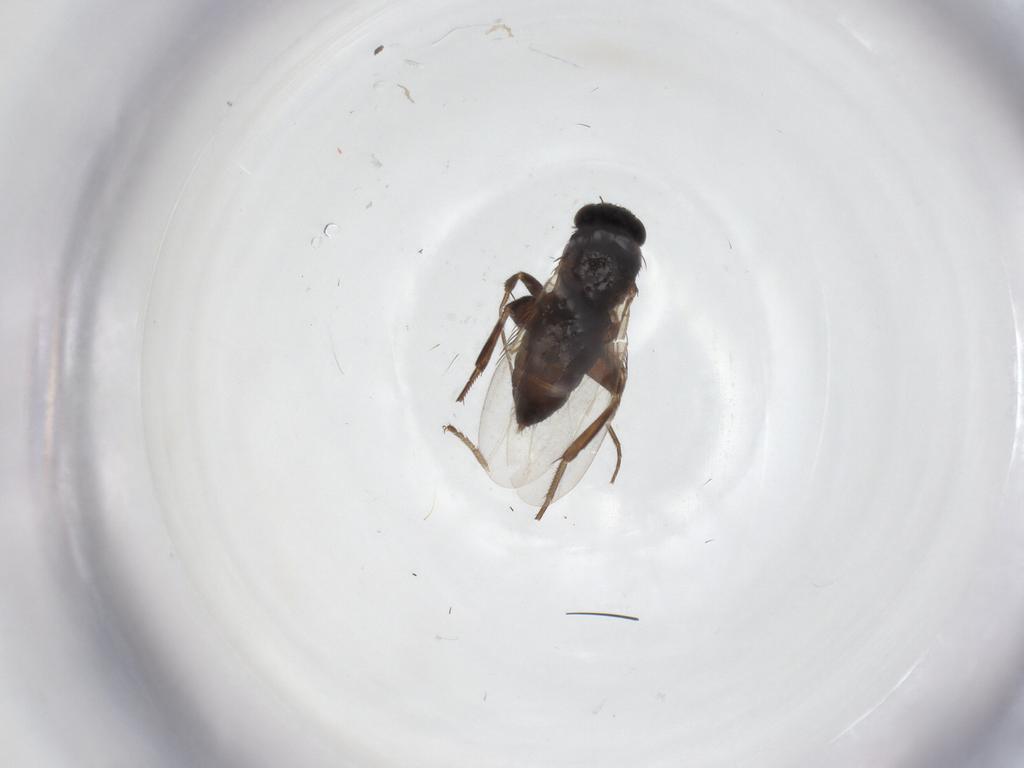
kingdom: Animalia
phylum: Arthropoda
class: Insecta
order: Diptera
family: Phoridae
